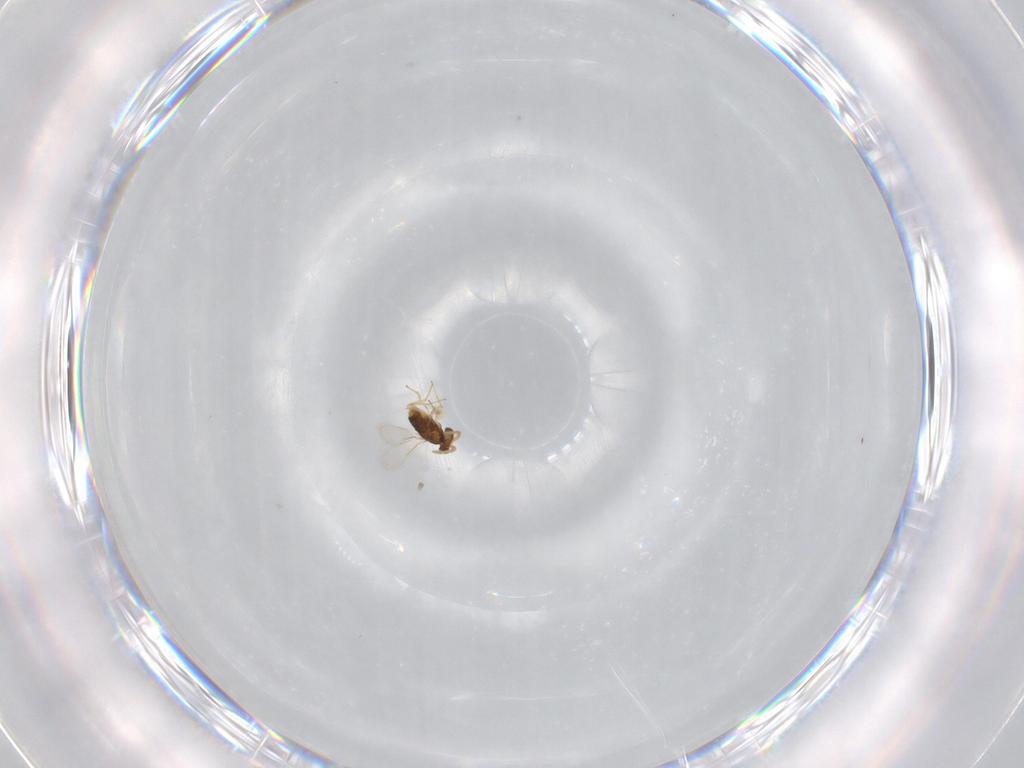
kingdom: Animalia
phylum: Arthropoda
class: Insecta
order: Hymenoptera
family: Aphelinidae
